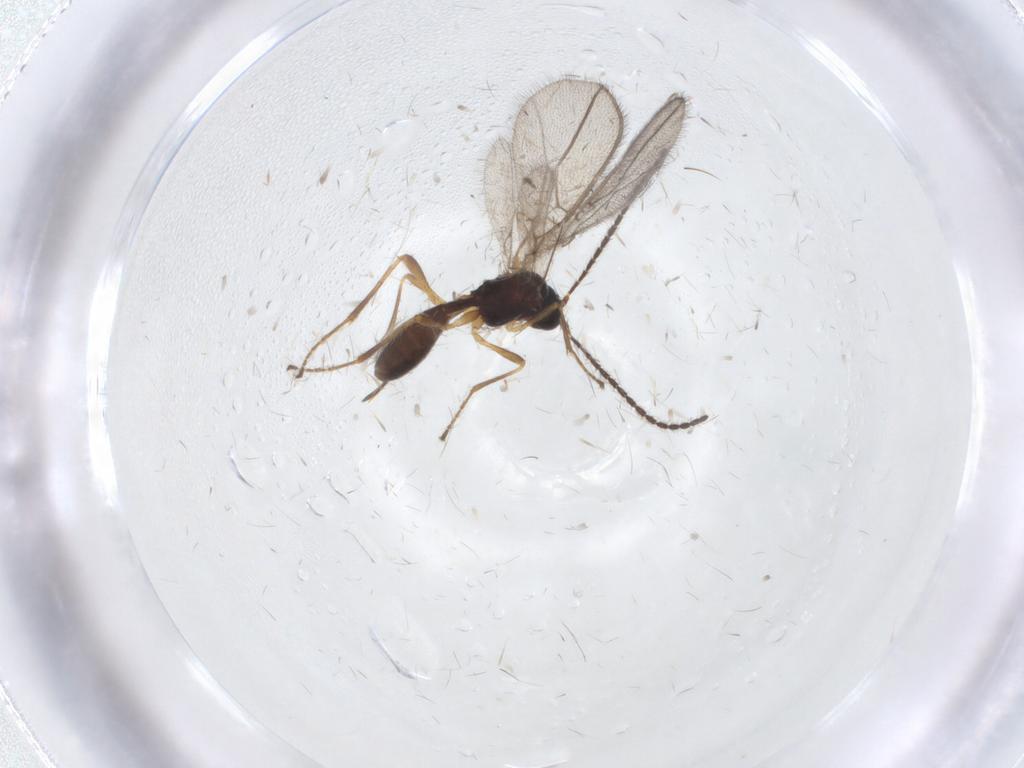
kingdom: Animalia
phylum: Arthropoda
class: Insecta
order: Hymenoptera
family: Braconidae
